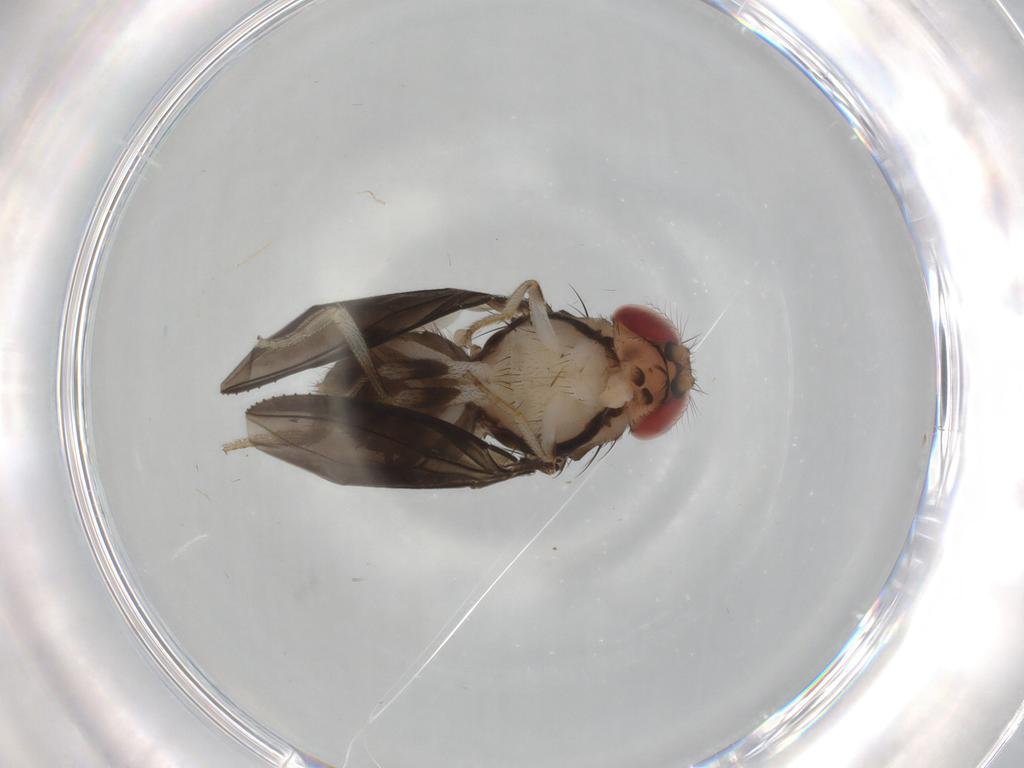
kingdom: Animalia
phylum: Arthropoda
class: Insecta
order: Diptera
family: Drosophilidae
